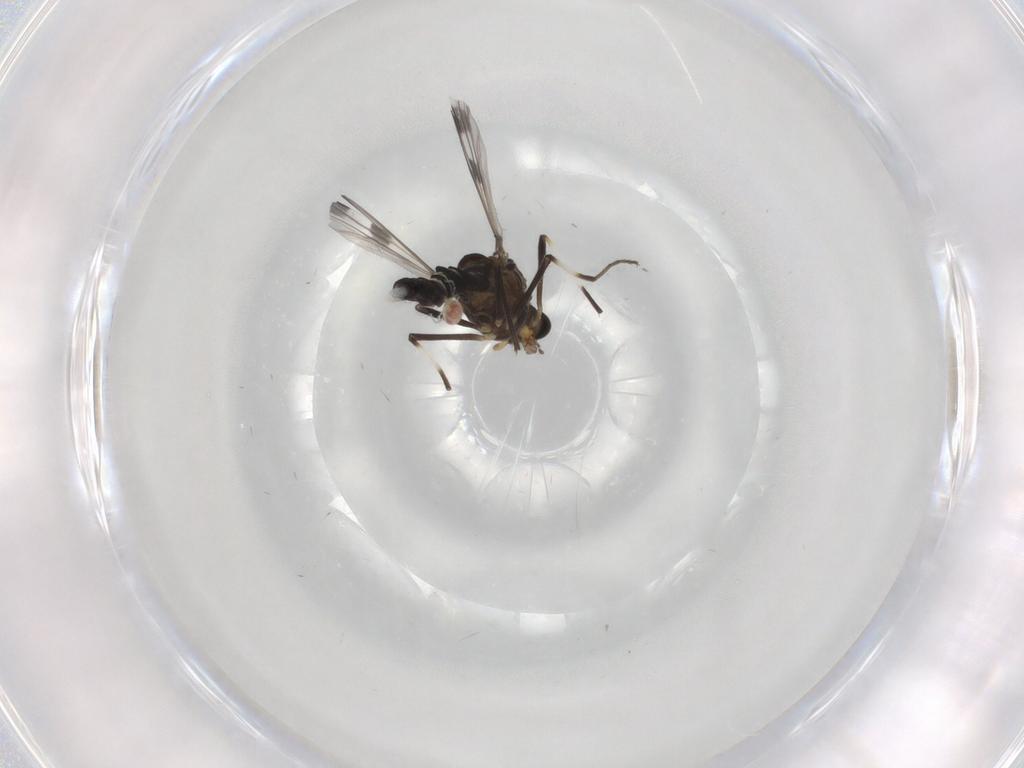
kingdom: Animalia
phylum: Arthropoda
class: Insecta
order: Diptera
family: Chironomidae
